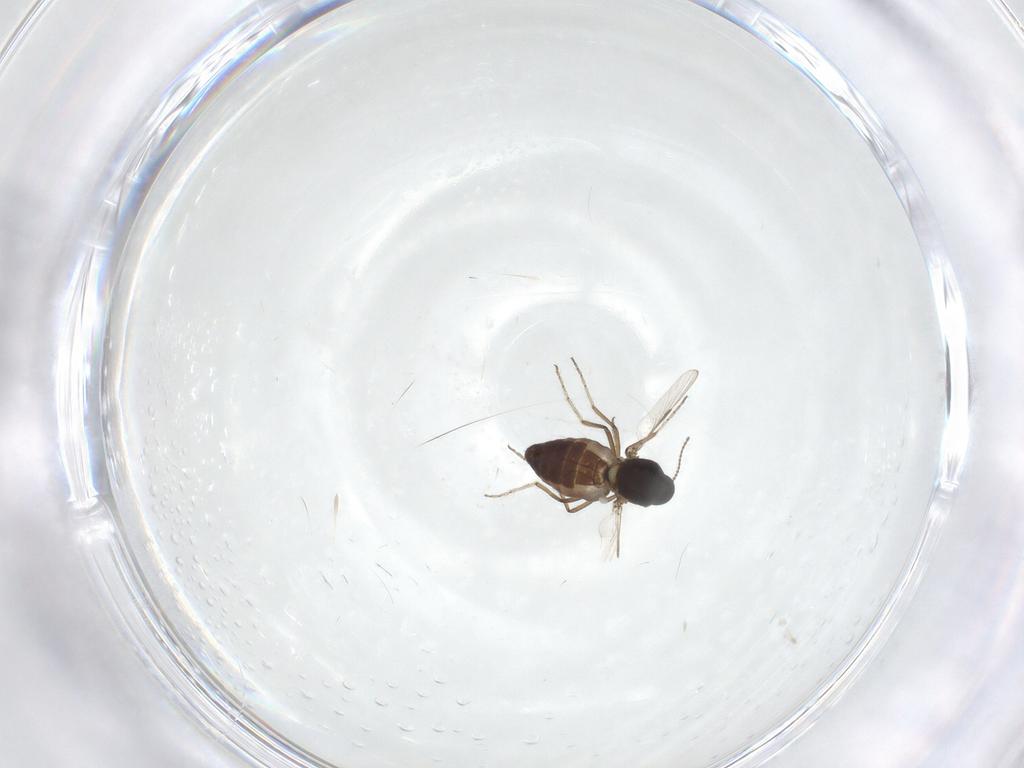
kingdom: Animalia
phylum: Arthropoda
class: Insecta
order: Diptera
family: Ceratopogonidae
